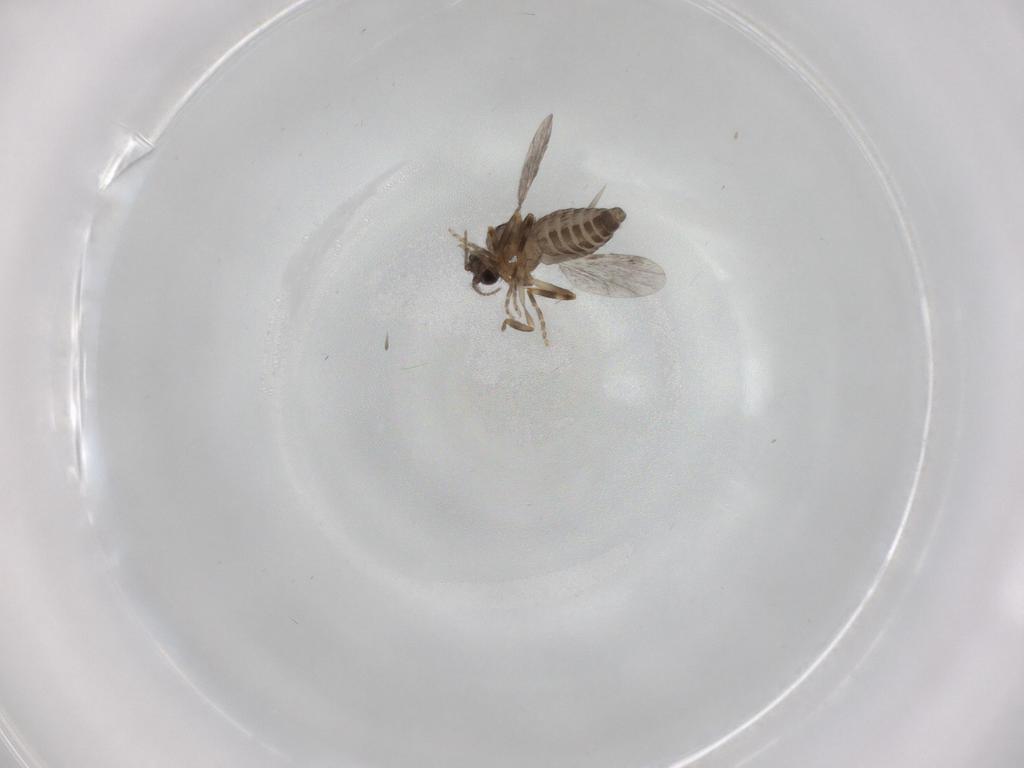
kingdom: Animalia
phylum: Arthropoda
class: Insecta
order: Diptera
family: Ceratopogonidae
